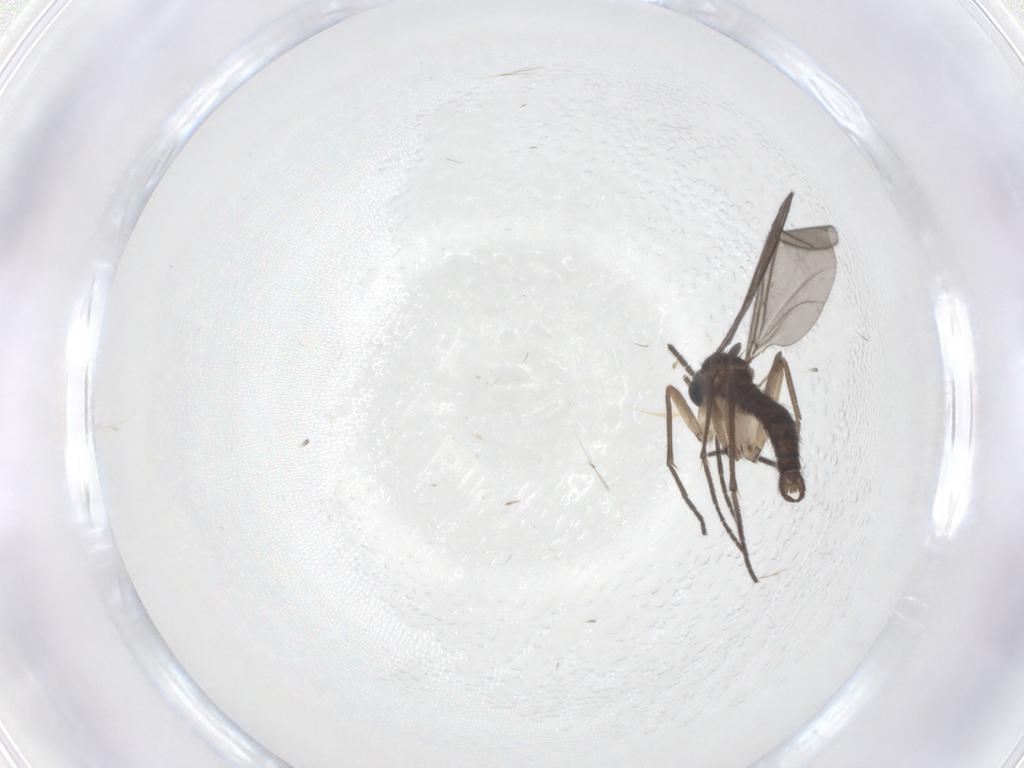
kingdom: Animalia
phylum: Arthropoda
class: Insecta
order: Diptera
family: Sciaridae
